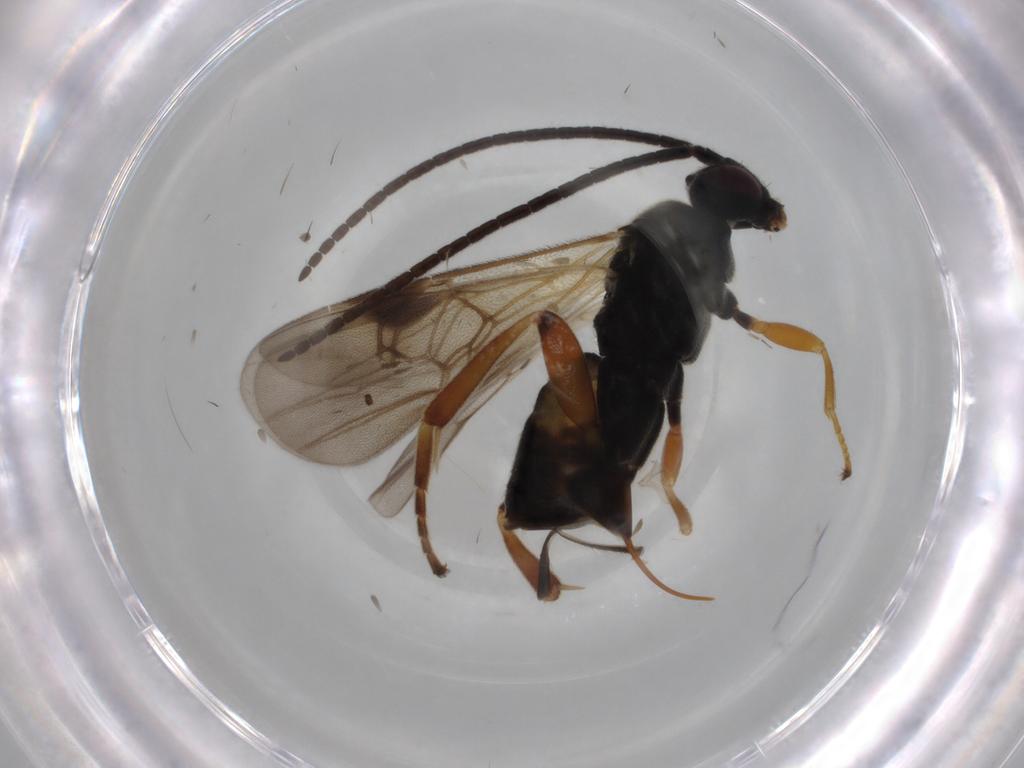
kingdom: Animalia
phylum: Arthropoda
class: Insecta
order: Hymenoptera
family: Braconidae
